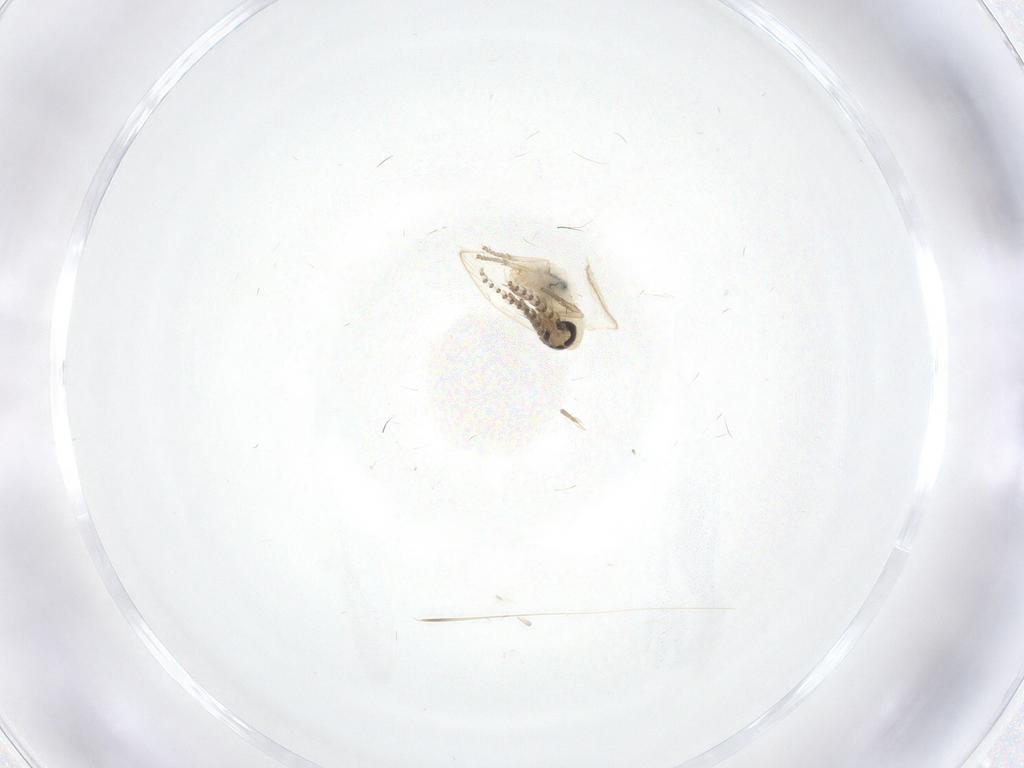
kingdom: Animalia
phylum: Arthropoda
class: Insecta
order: Diptera
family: Psychodidae
